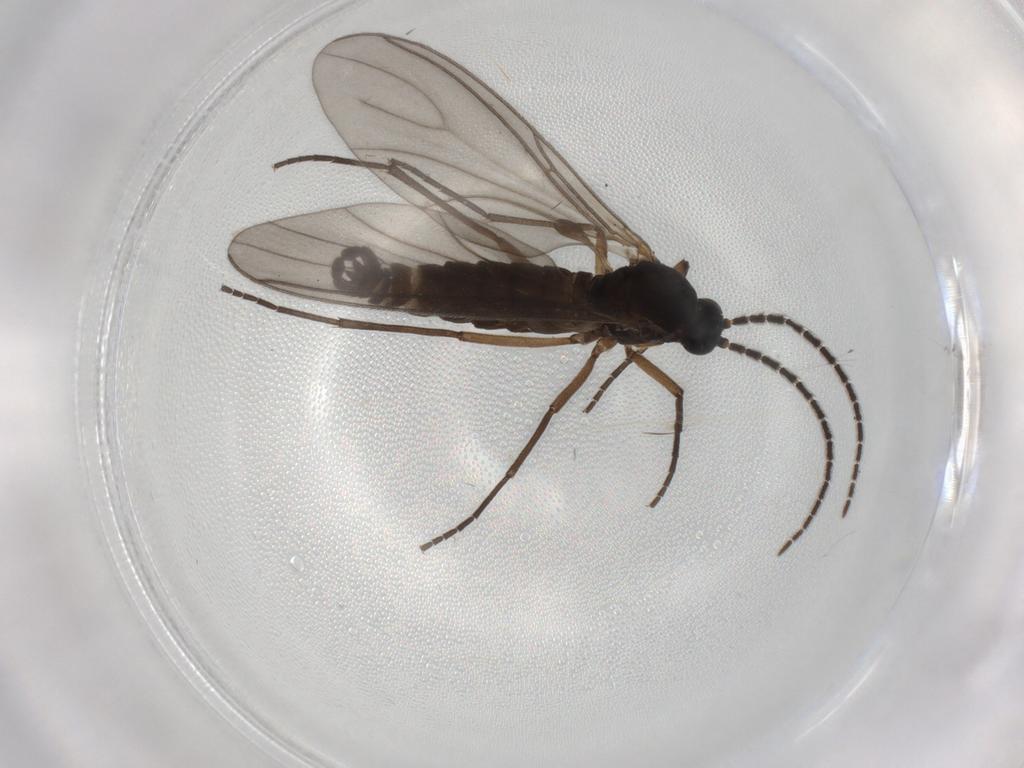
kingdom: Animalia
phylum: Arthropoda
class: Insecta
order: Diptera
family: Sciaridae
